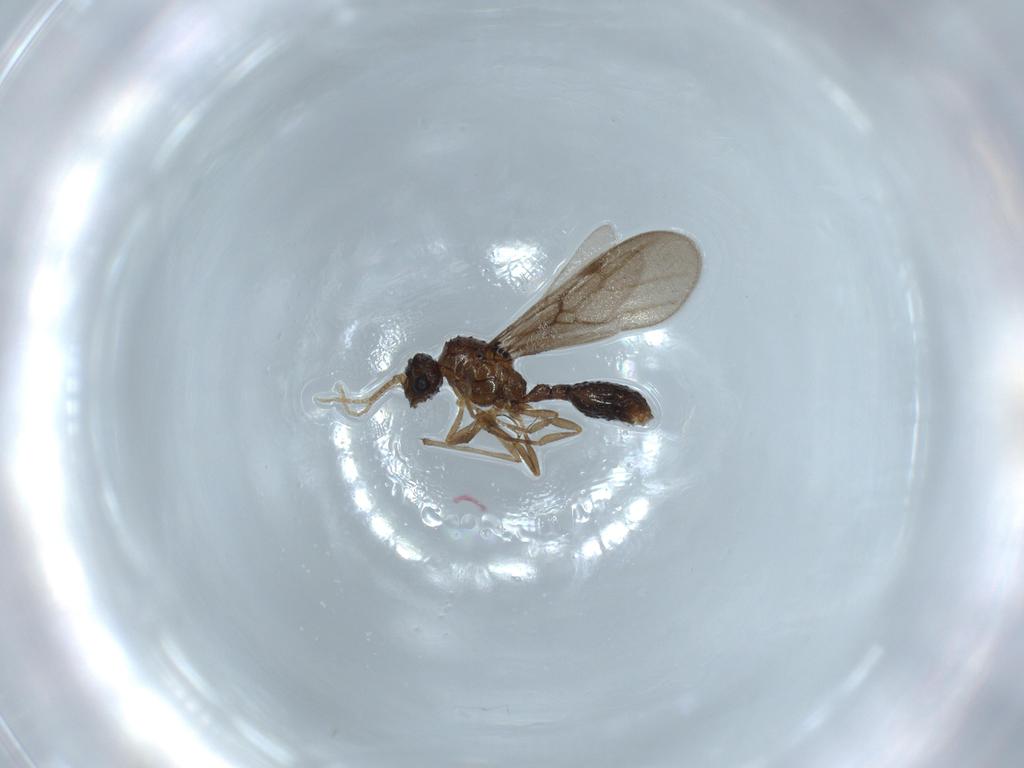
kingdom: Animalia
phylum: Arthropoda
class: Insecta
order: Hymenoptera
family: Formicidae
